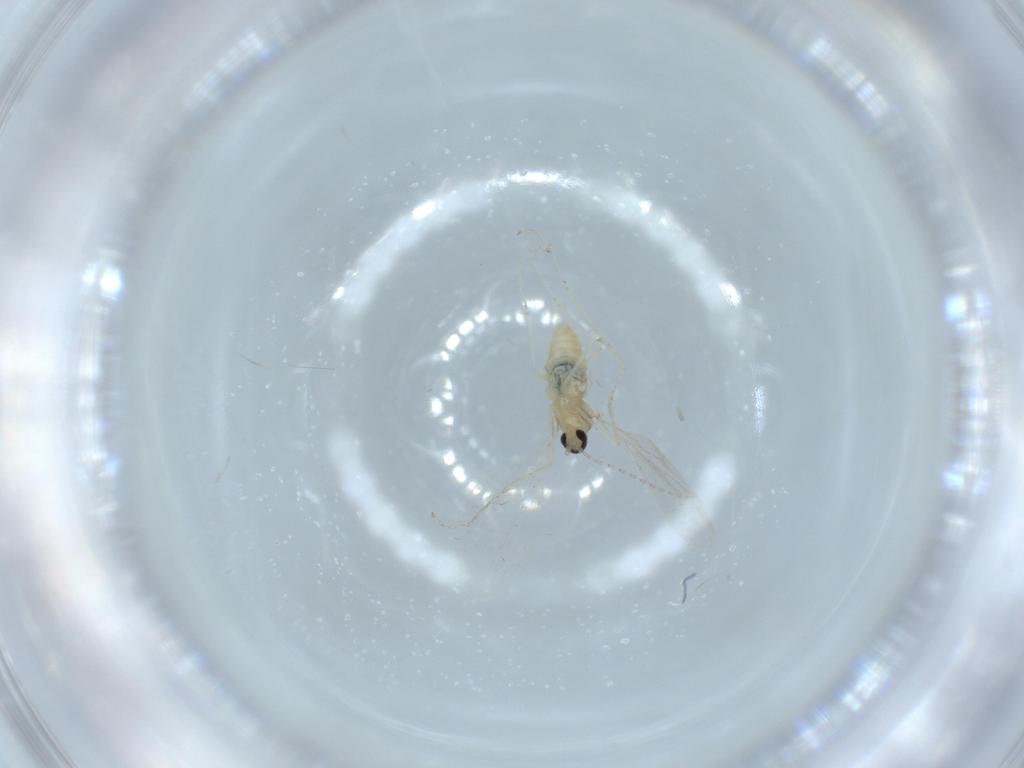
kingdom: Animalia
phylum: Arthropoda
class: Insecta
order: Diptera
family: Cecidomyiidae
